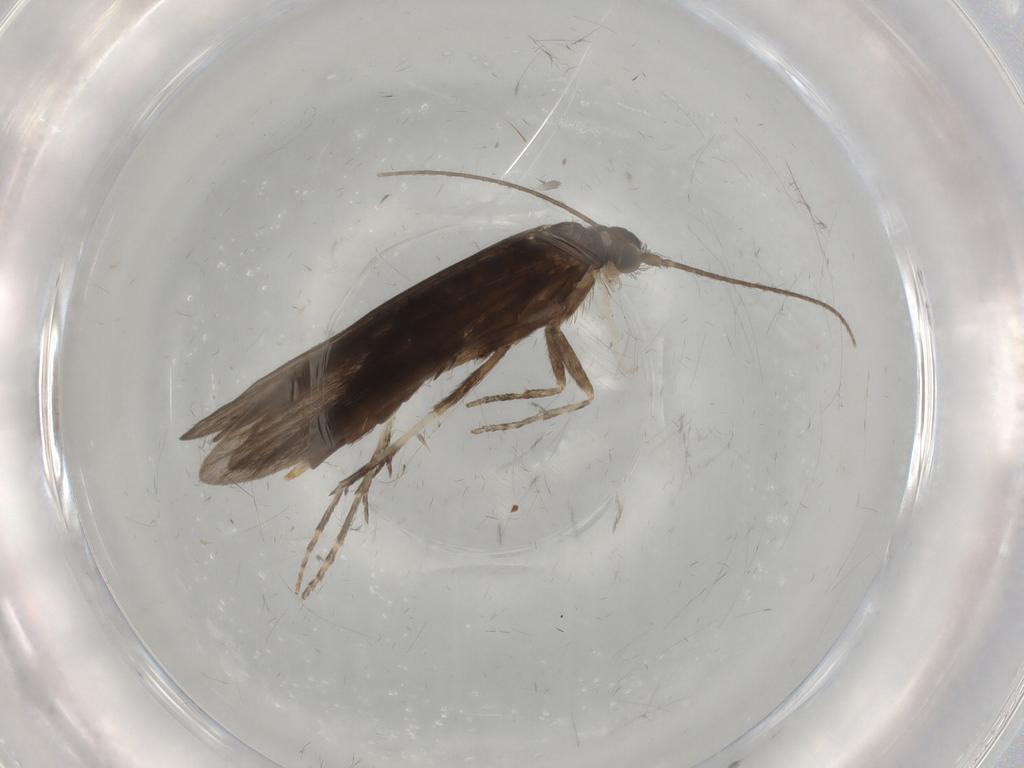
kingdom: Animalia
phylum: Arthropoda
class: Insecta
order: Trichoptera
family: Xiphocentronidae
